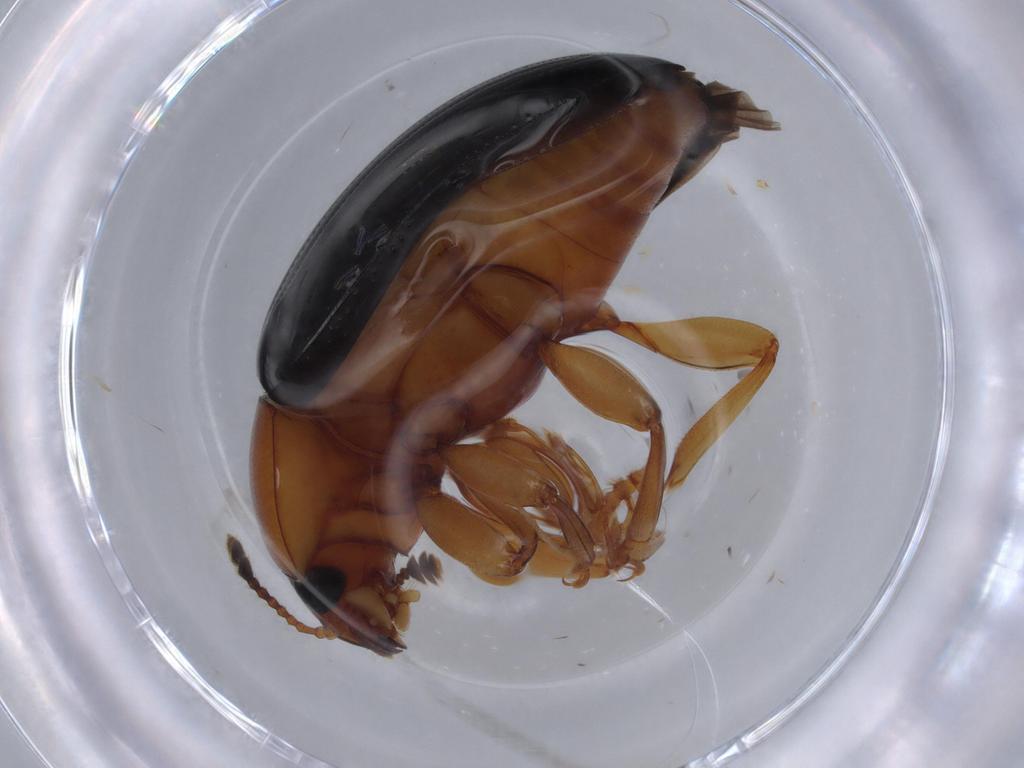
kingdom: Animalia
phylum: Arthropoda
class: Insecta
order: Coleoptera
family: Erotylidae
